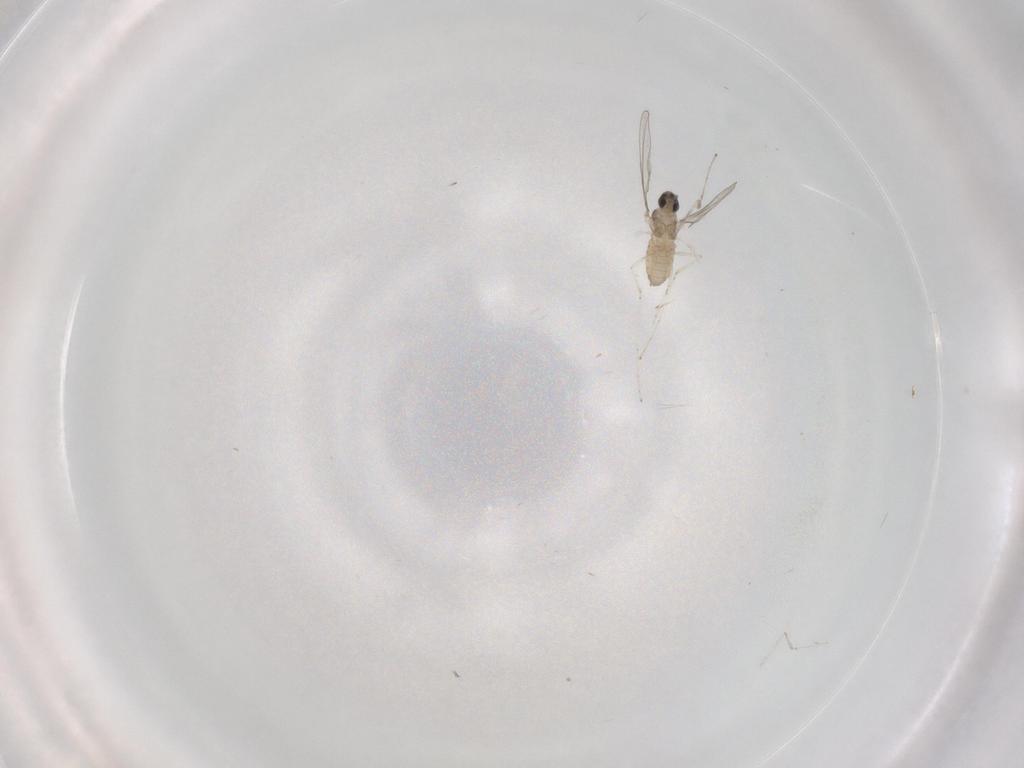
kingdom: Animalia
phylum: Arthropoda
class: Insecta
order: Diptera
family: Cecidomyiidae
